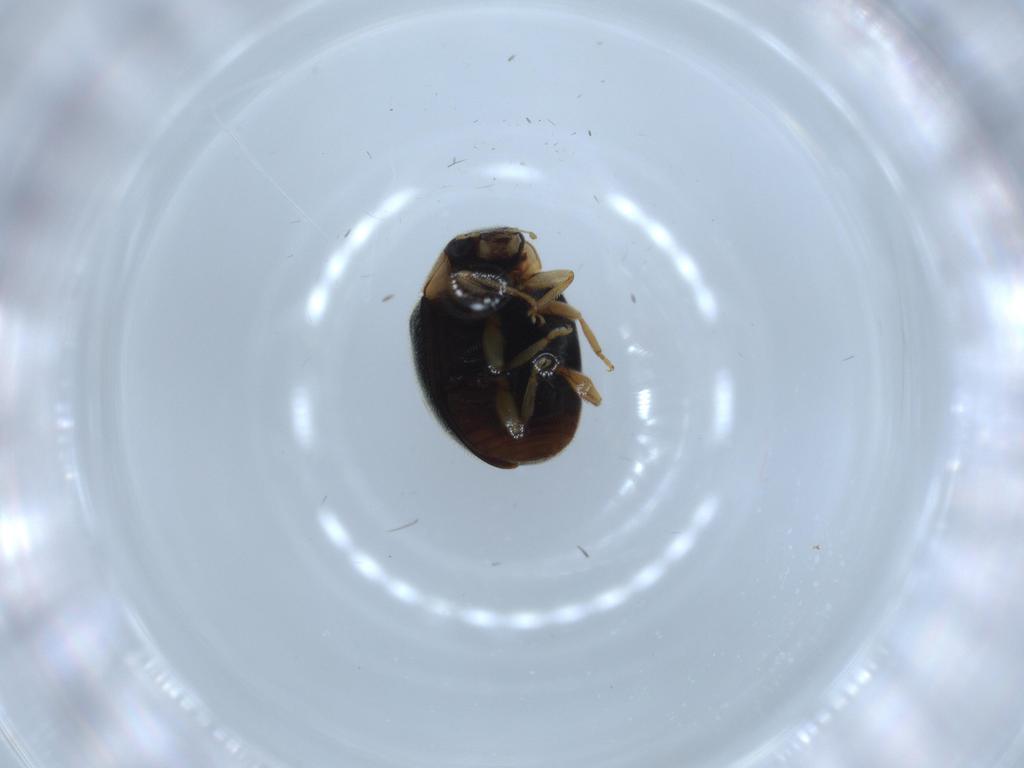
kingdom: Animalia
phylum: Arthropoda
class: Insecta
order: Coleoptera
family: Coccinellidae
